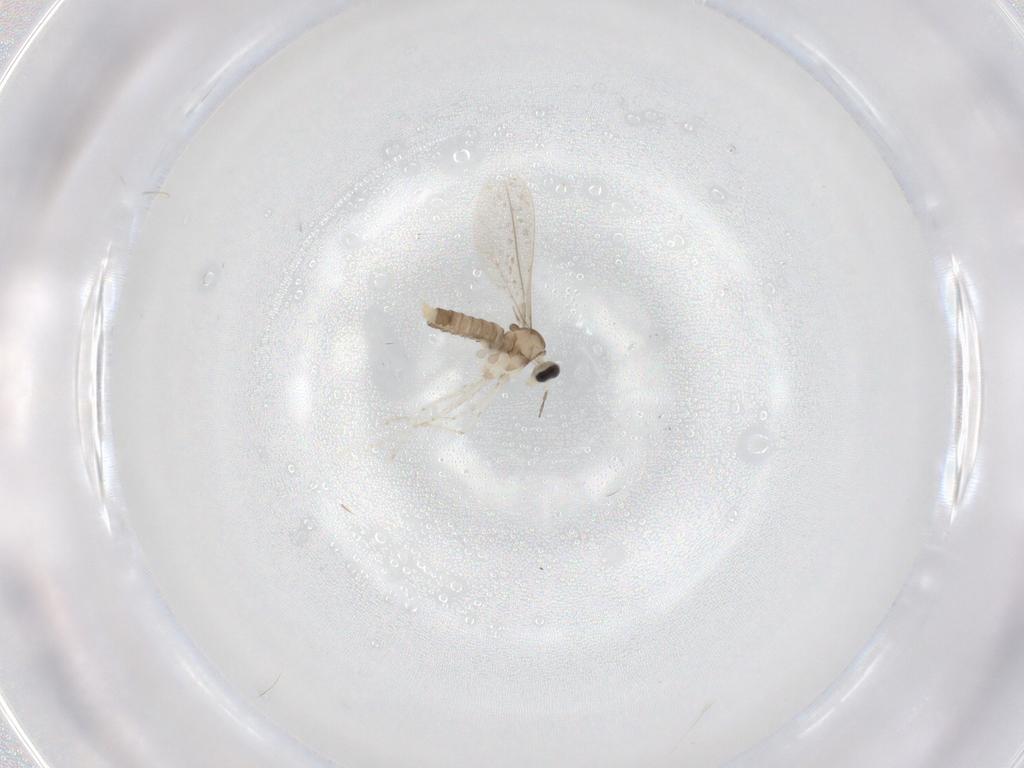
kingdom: Animalia
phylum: Arthropoda
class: Insecta
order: Diptera
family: Cecidomyiidae
